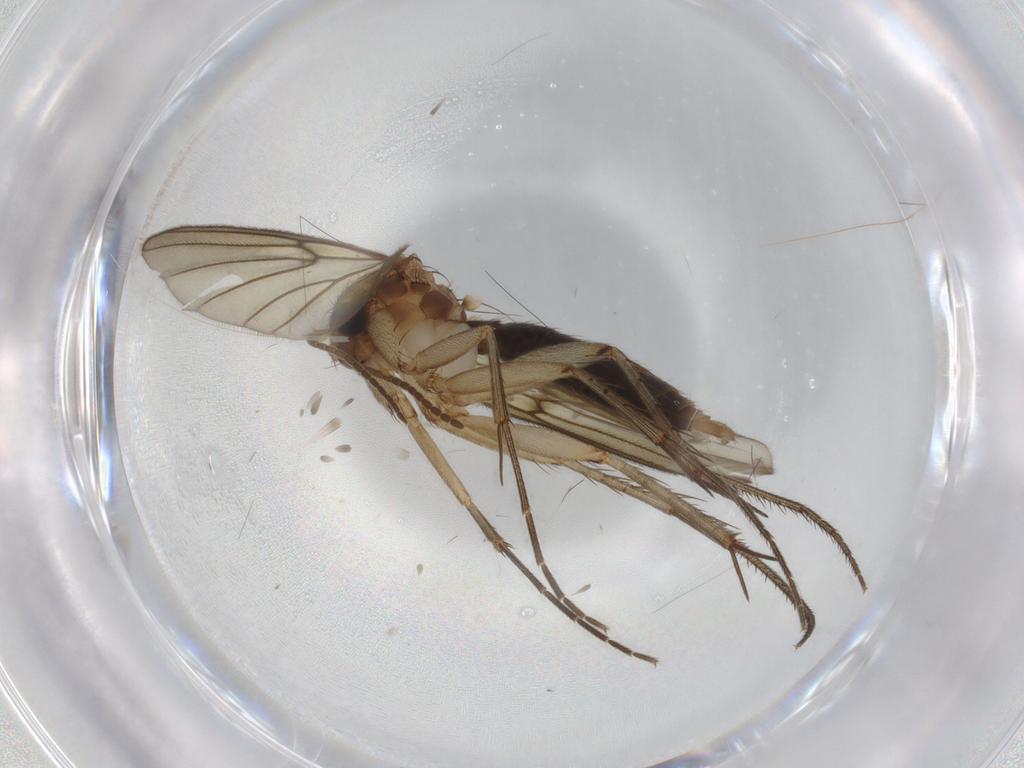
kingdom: Animalia
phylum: Arthropoda
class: Insecta
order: Diptera
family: Mycetophilidae
